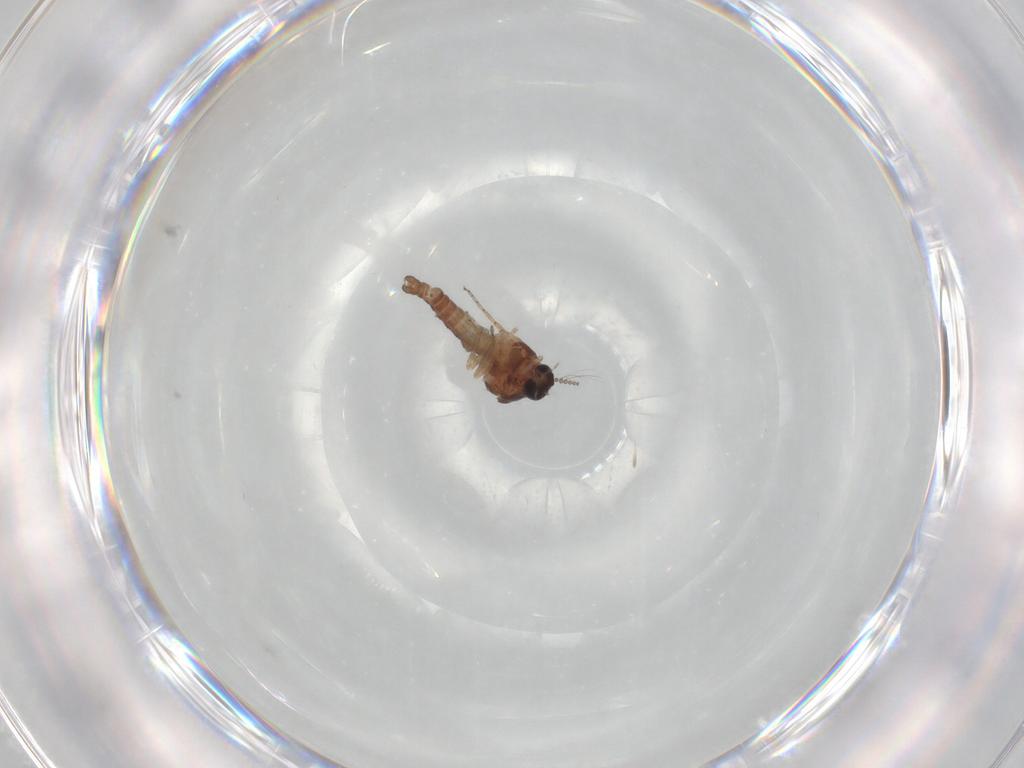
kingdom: Animalia
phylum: Arthropoda
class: Insecta
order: Diptera
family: Ceratopogonidae
